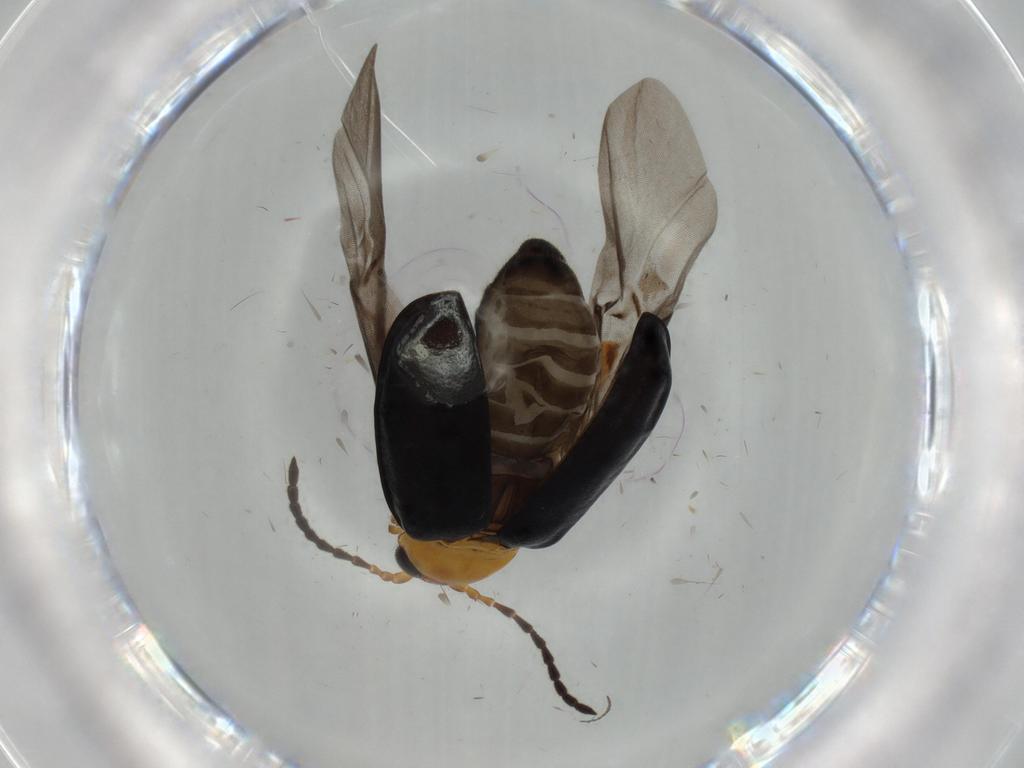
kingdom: Animalia
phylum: Arthropoda
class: Insecta
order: Coleoptera
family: Chrysomelidae
